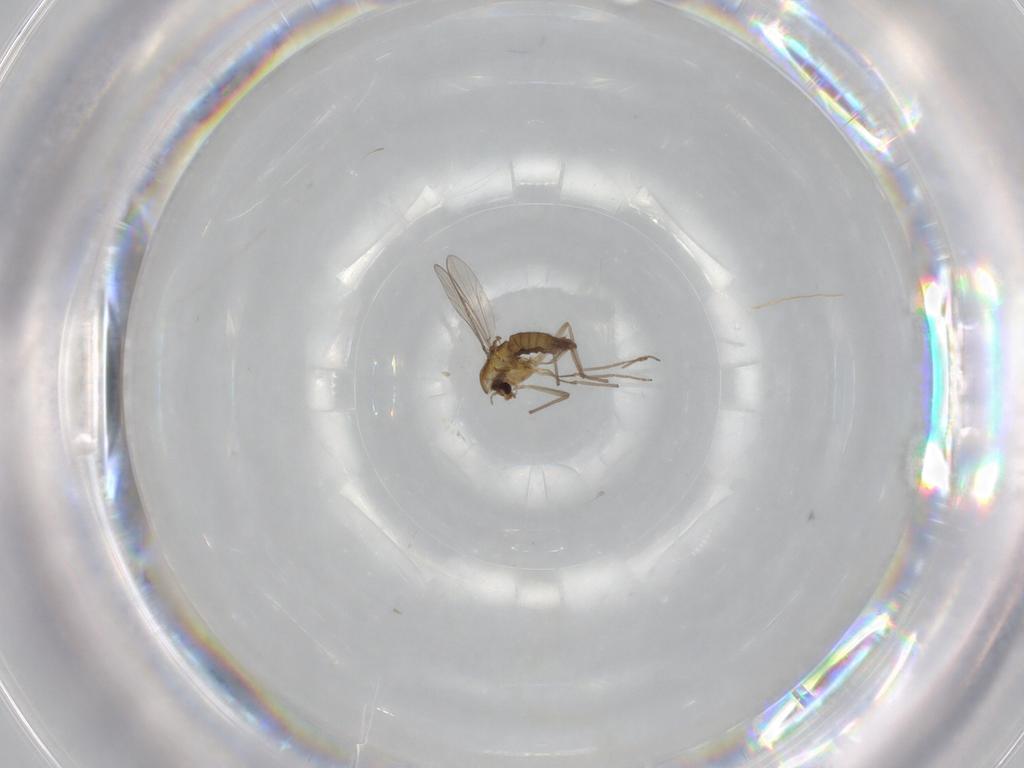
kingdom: Animalia
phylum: Arthropoda
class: Insecta
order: Diptera
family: Chironomidae
